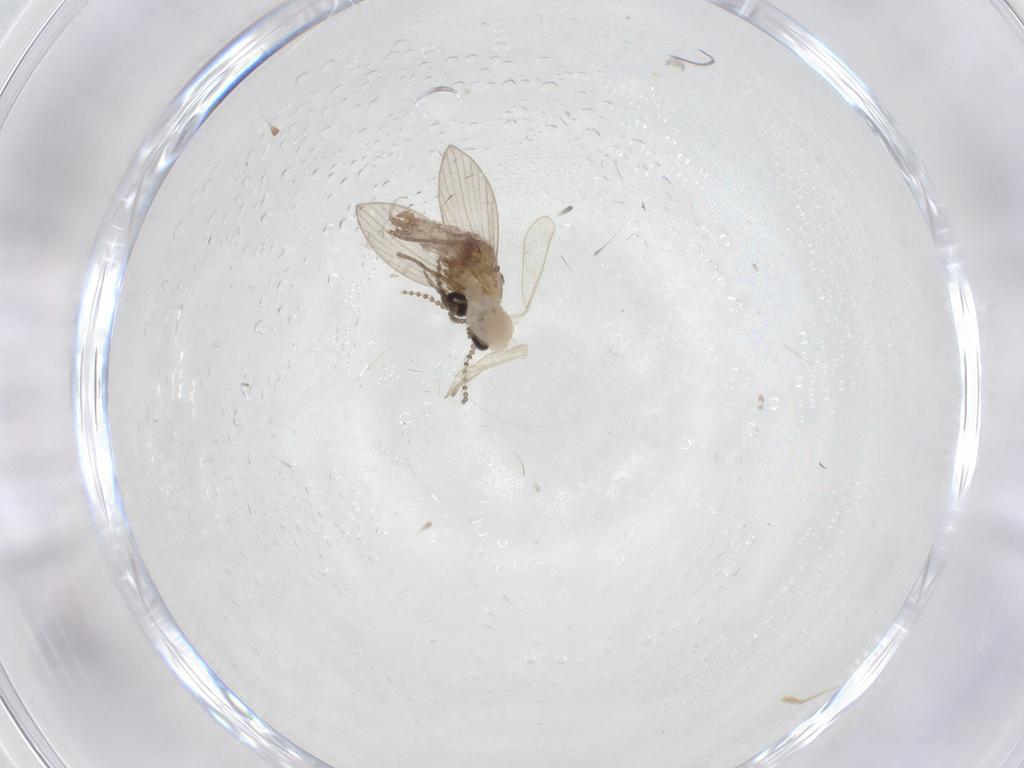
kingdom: Animalia
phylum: Arthropoda
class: Insecta
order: Diptera
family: Psychodidae
